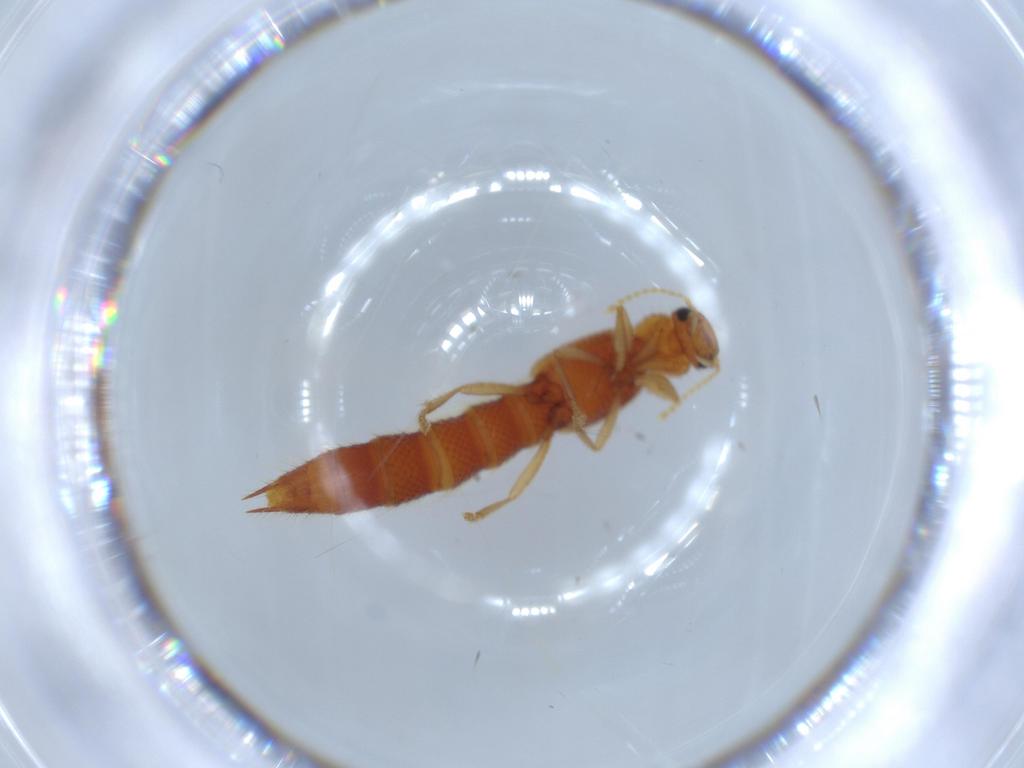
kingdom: Animalia
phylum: Arthropoda
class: Insecta
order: Coleoptera
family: Staphylinidae
